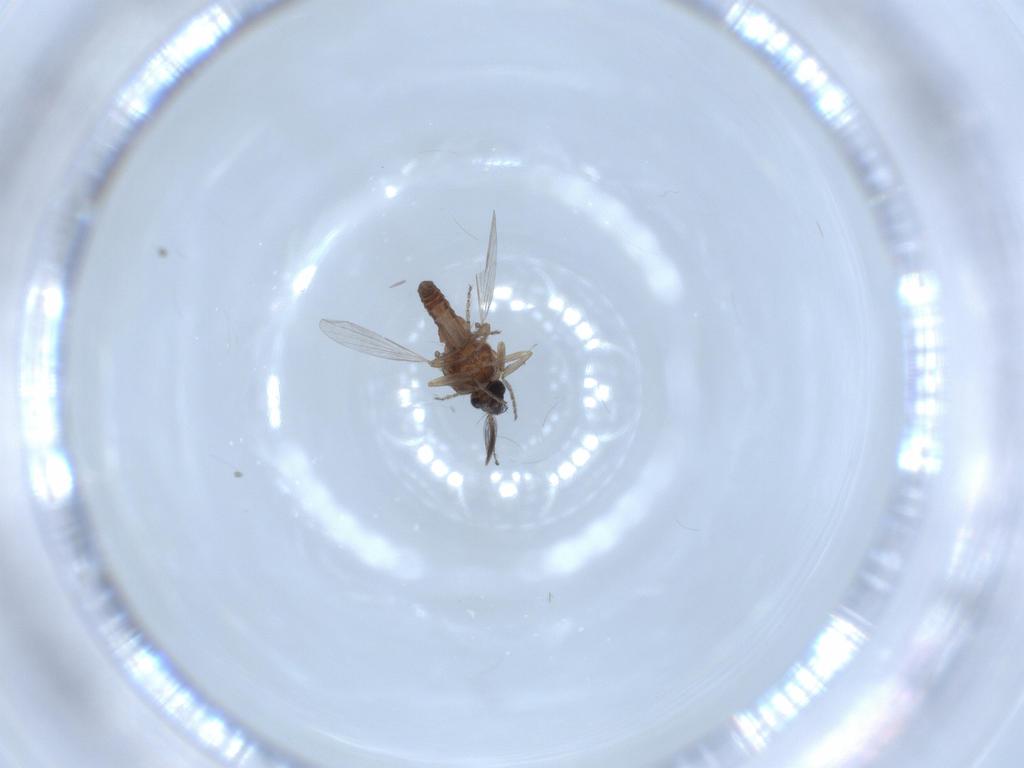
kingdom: Animalia
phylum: Arthropoda
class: Insecta
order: Diptera
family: Ceratopogonidae
